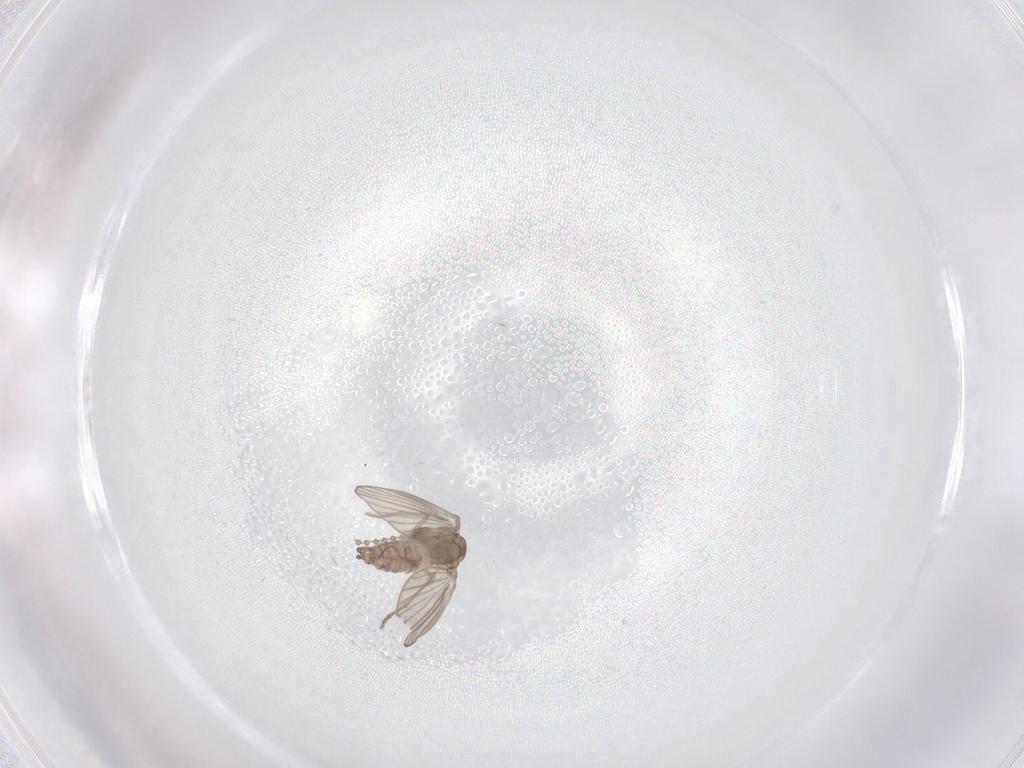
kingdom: Animalia
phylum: Arthropoda
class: Insecta
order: Diptera
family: Psychodidae
